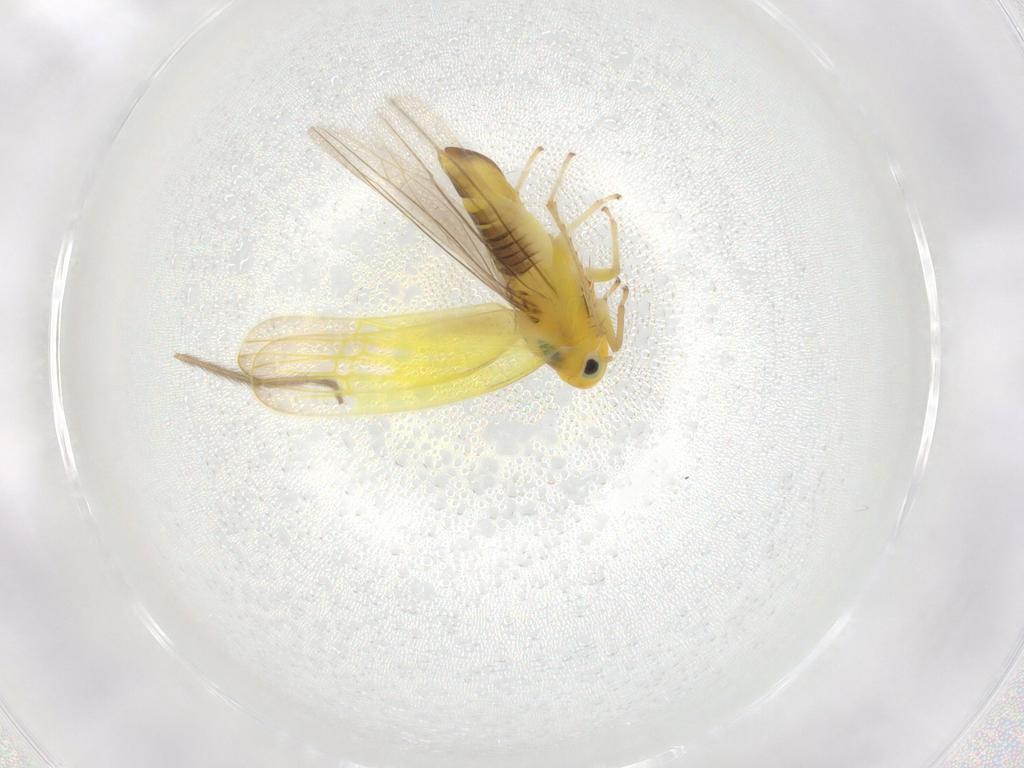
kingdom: Animalia
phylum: Arthropoda
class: Insecta
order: Hemiptera
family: Cicadellidae
